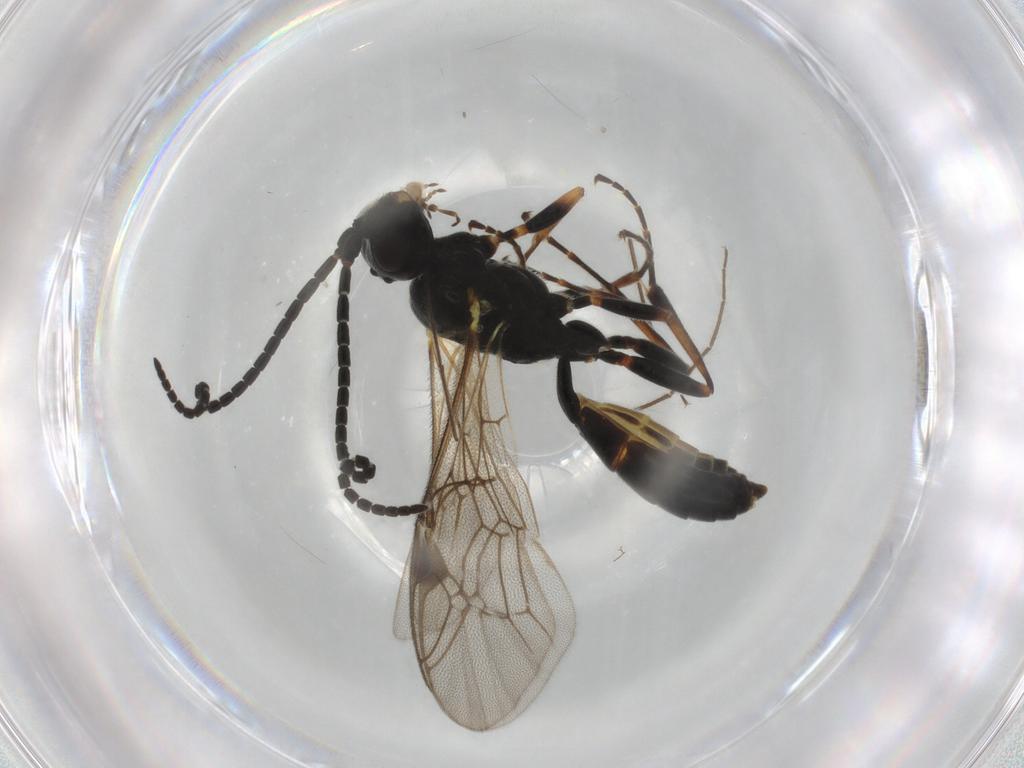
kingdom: Animalia
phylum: Arthropoda
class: Insecta
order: Hymenoptera
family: Ichneumonidae
